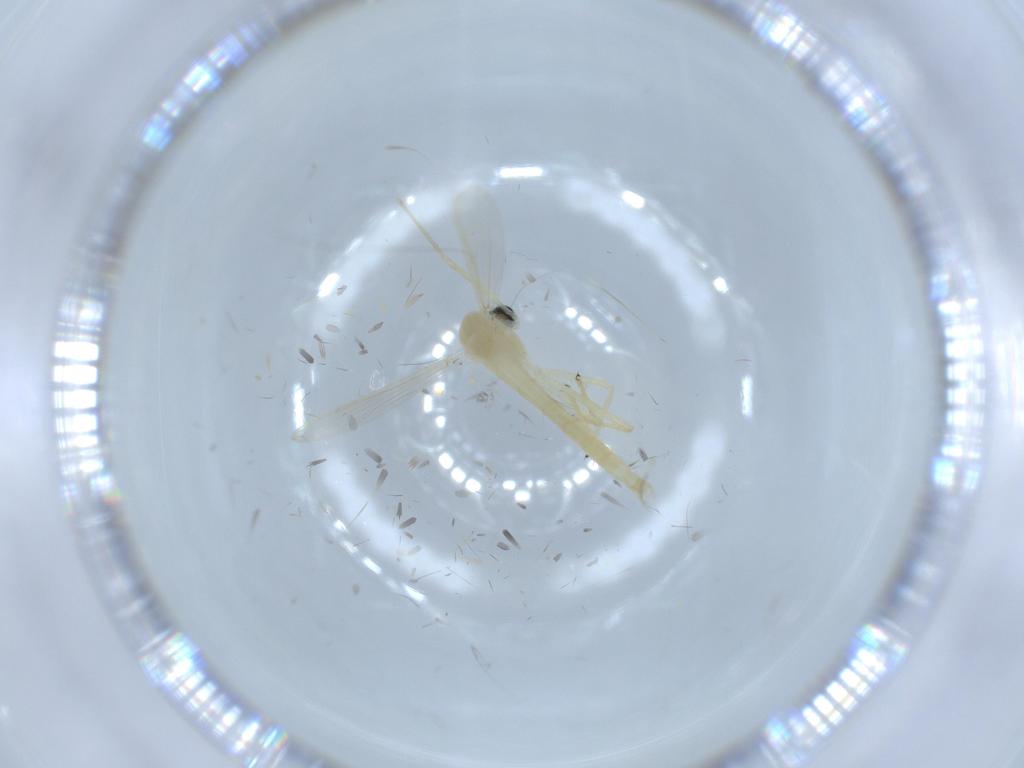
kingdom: Animalia
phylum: Arthropoda
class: Insecta
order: Diptera
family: Chironomidae
